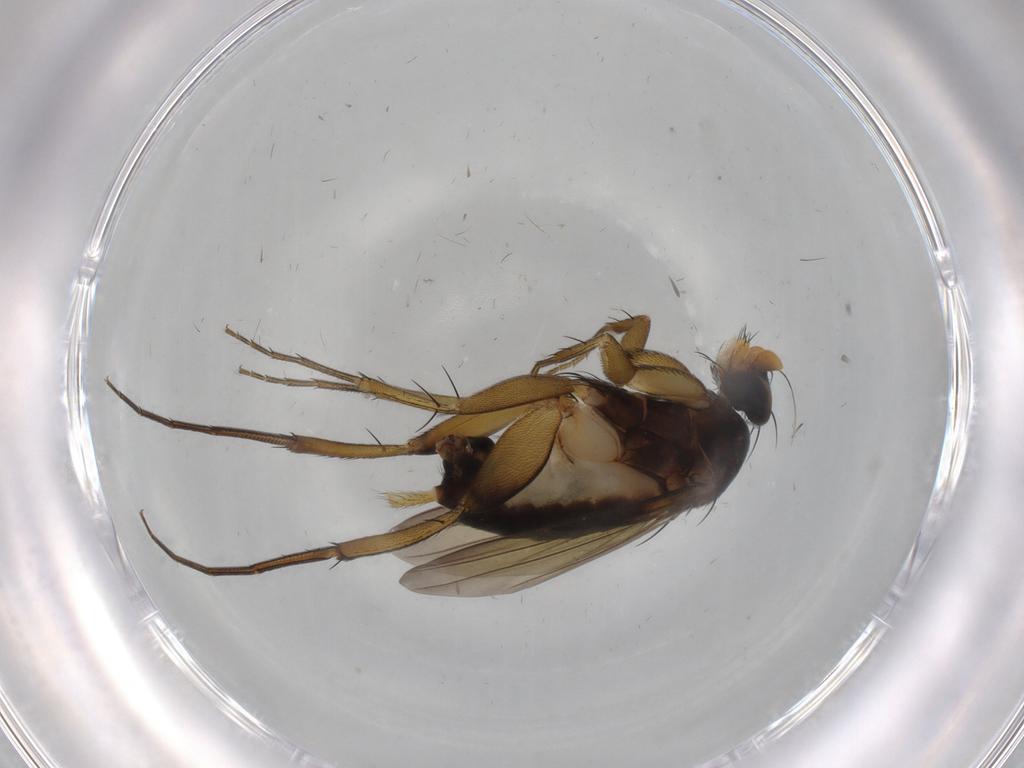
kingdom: Animalia
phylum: Arthropoda
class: Insecta
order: Diptera
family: Phoridae
